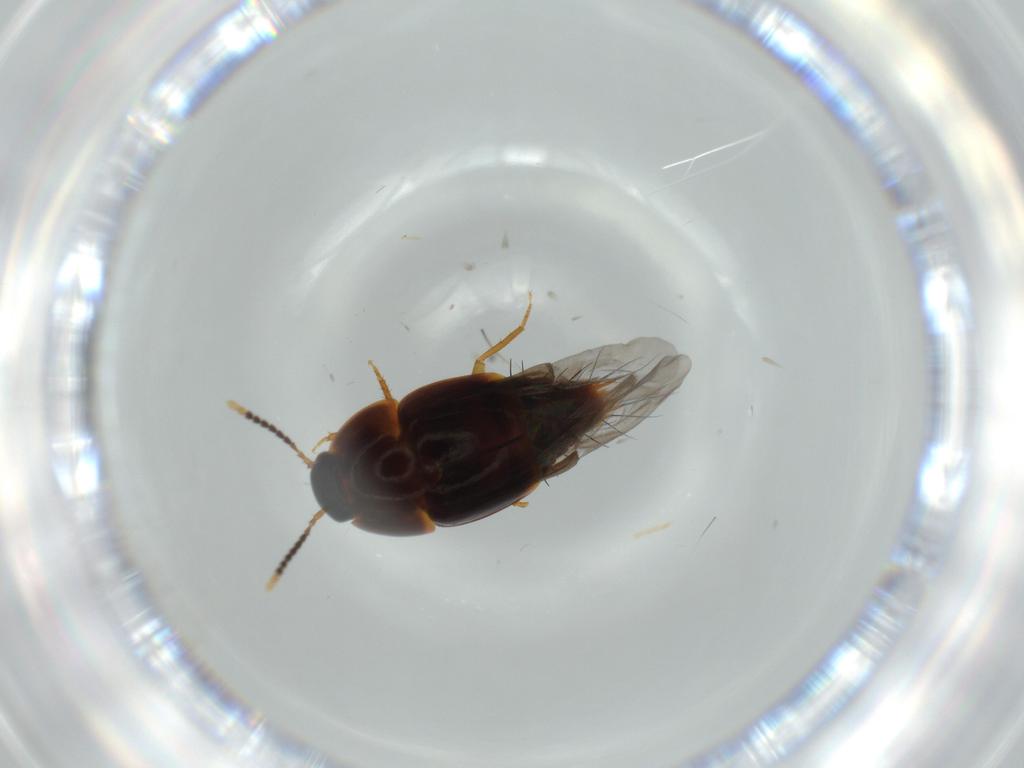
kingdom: Animalia
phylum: Arthropoda
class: Insecta
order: Coleoptera
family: Staphylinidae
